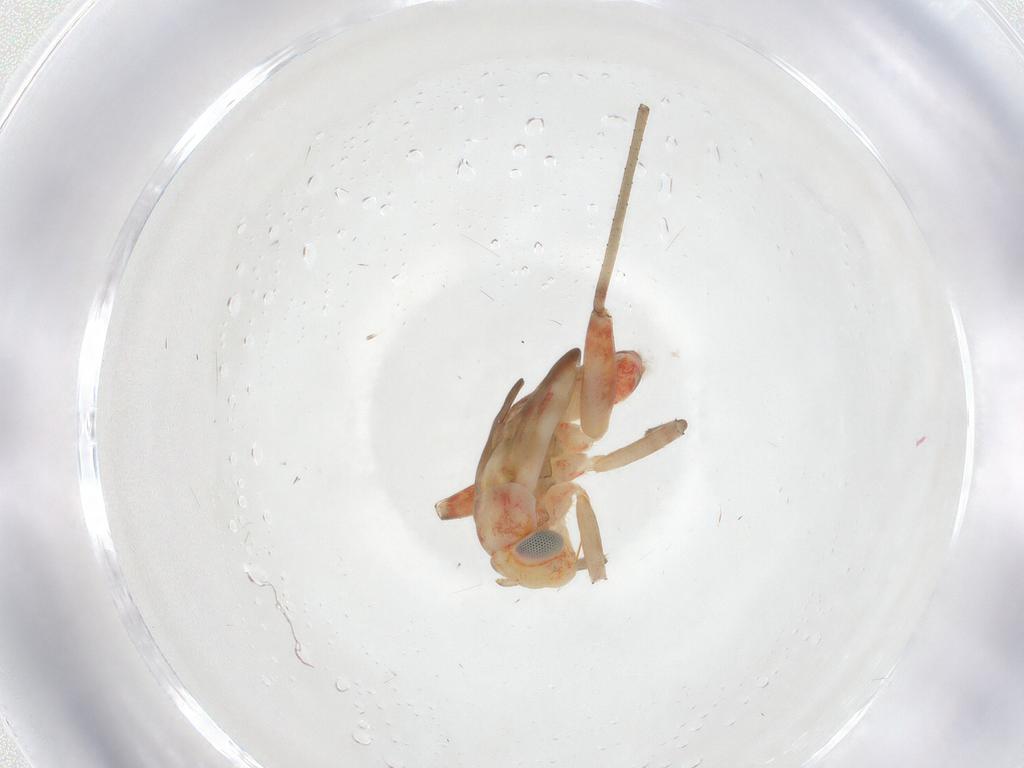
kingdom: Animalia
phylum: Arthropoda
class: Insecta
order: Hemiptera
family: Miridae
